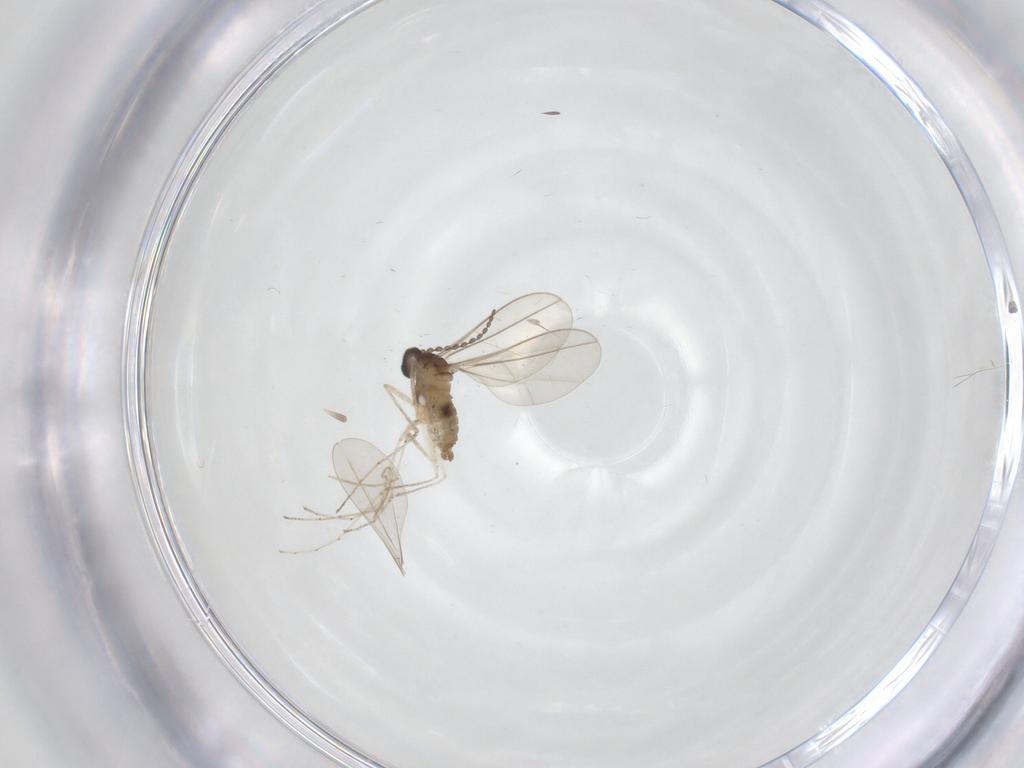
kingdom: Animalia
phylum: Arthropoda
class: Insecta
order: Diptera
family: Cecidomyiidae
